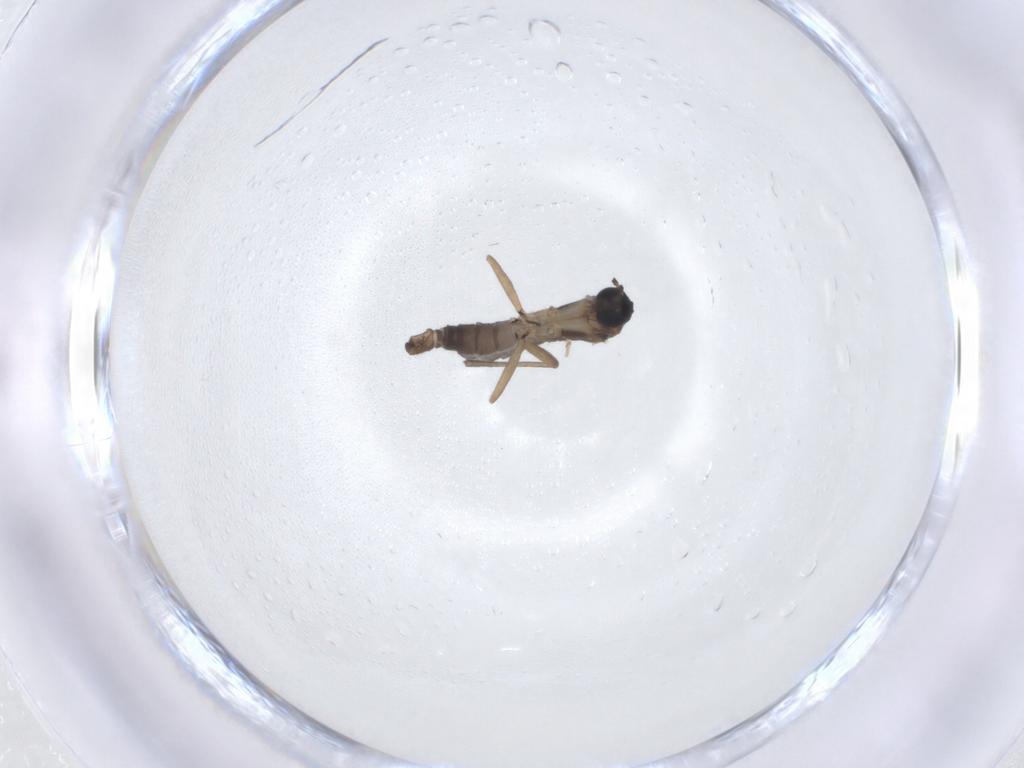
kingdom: Animalia
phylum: Arthropoda
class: Insecta
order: Diptera
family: Sciaridae
